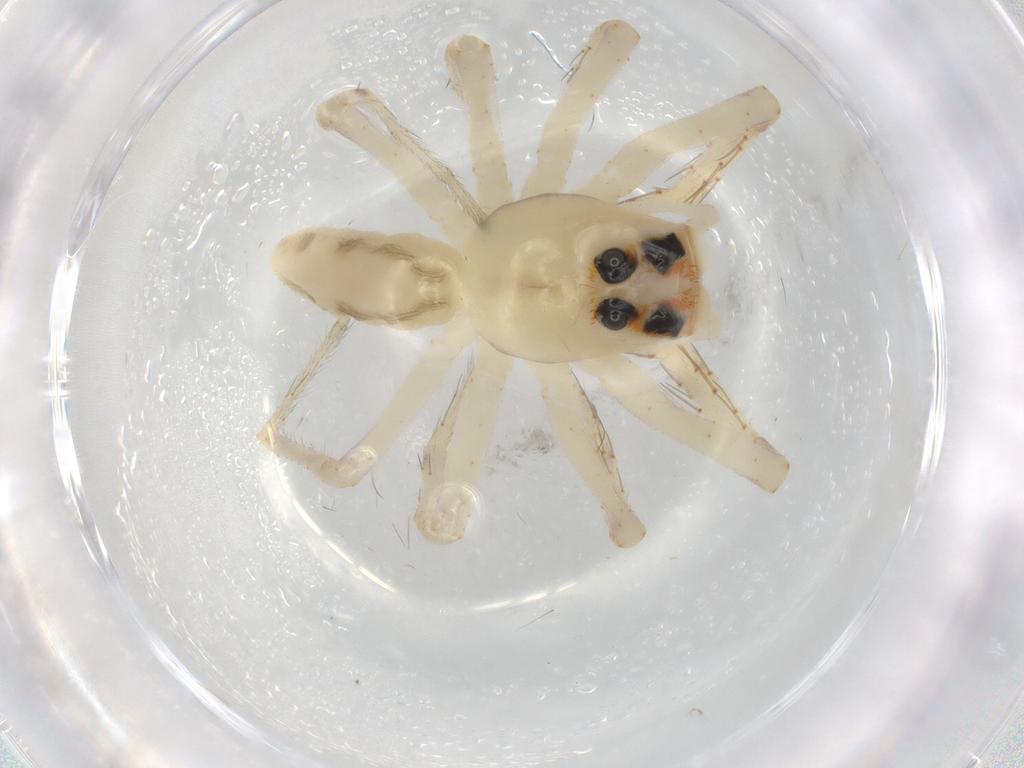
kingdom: Animalia
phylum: Arthropoda
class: Arachnida
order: Araneae
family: Salticidae
